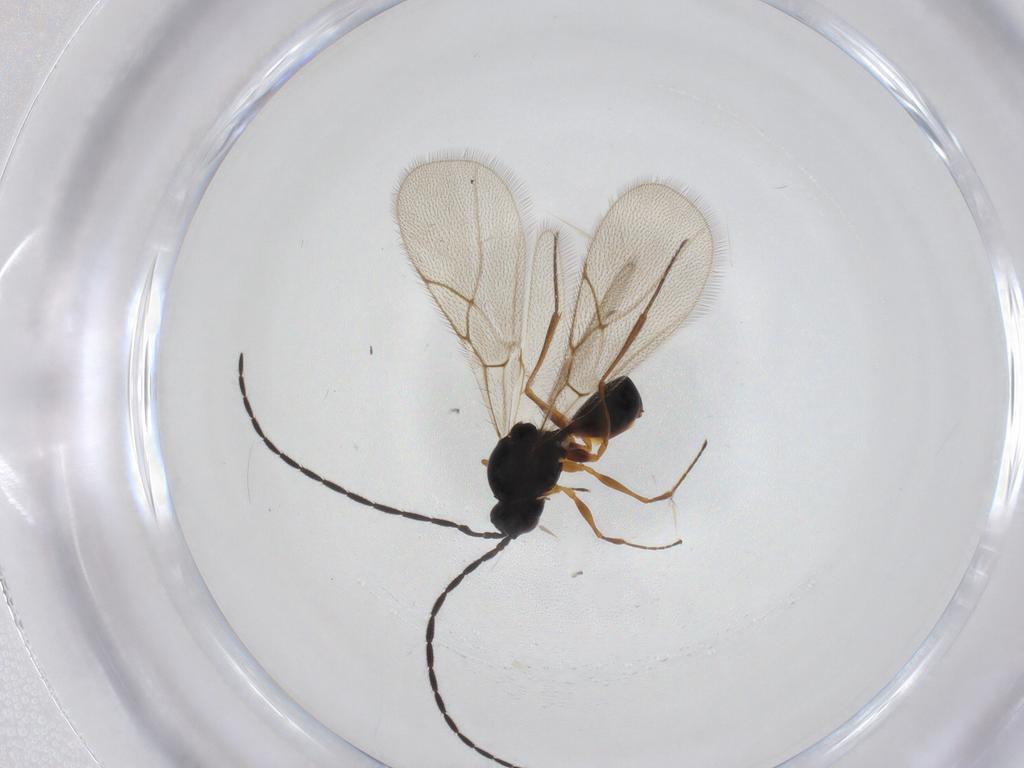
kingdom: Animalia
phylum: Arthropoda
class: Insecta
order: Hymenoptera
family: Figitidae
